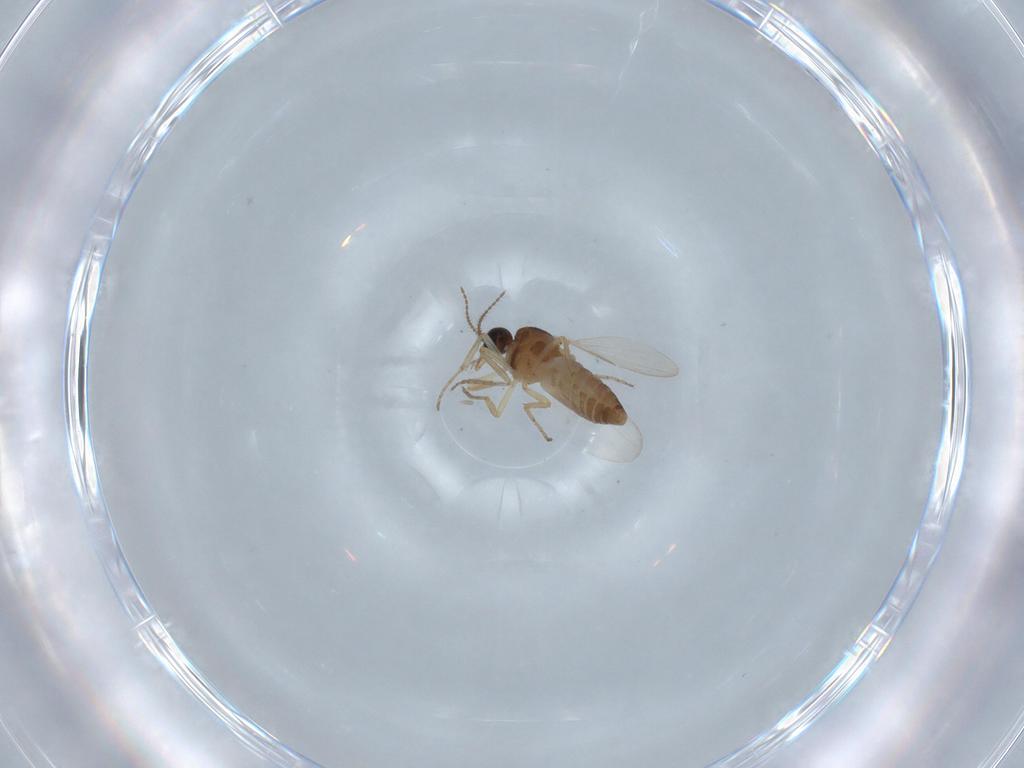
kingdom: Animalia
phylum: Arthropoda
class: Insecta
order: Diptera
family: Ceratopogonidae
